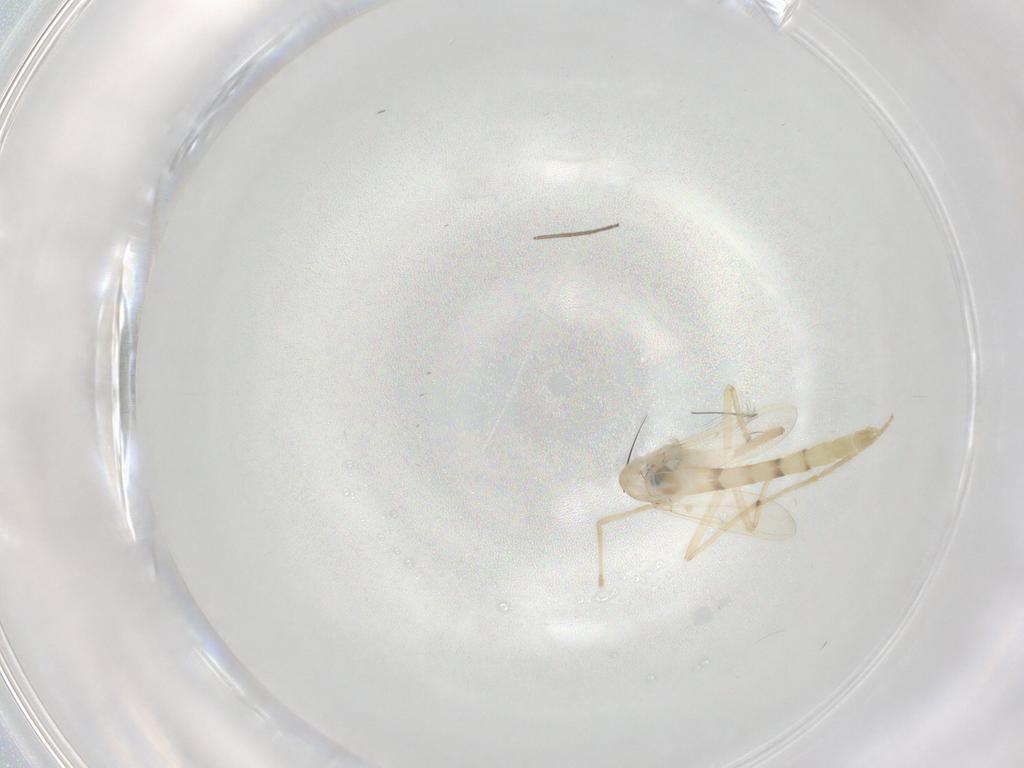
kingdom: Animalia
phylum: Arthropoda
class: Insecta
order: Diptera
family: Chironomidae
